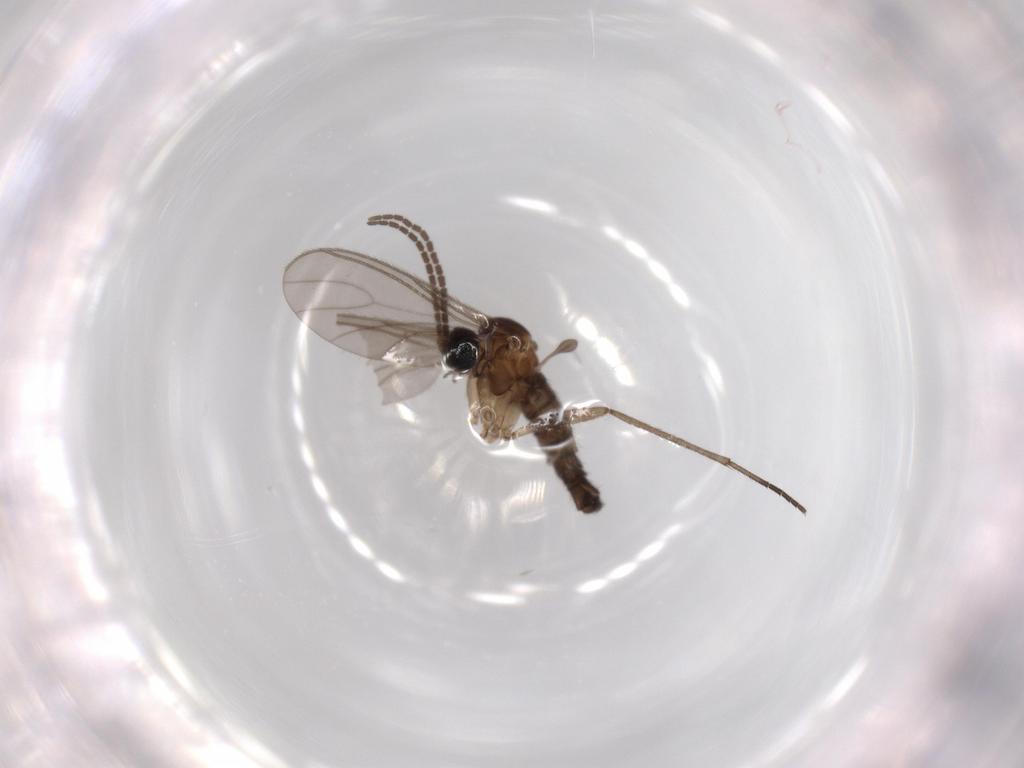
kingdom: Animalia
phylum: Arthropoda
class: Insecta
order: Diptera
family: Sciaridae
